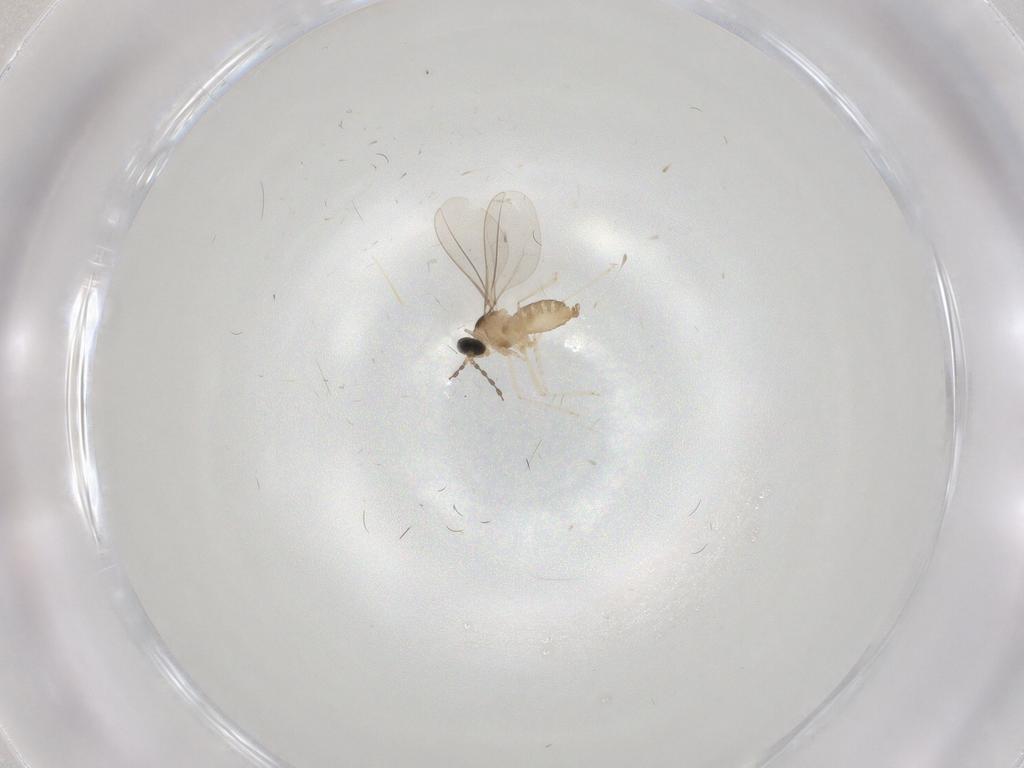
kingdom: Animalia
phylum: Arthropoda
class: Insecta
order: Diptera
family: Cecidomyiidae
